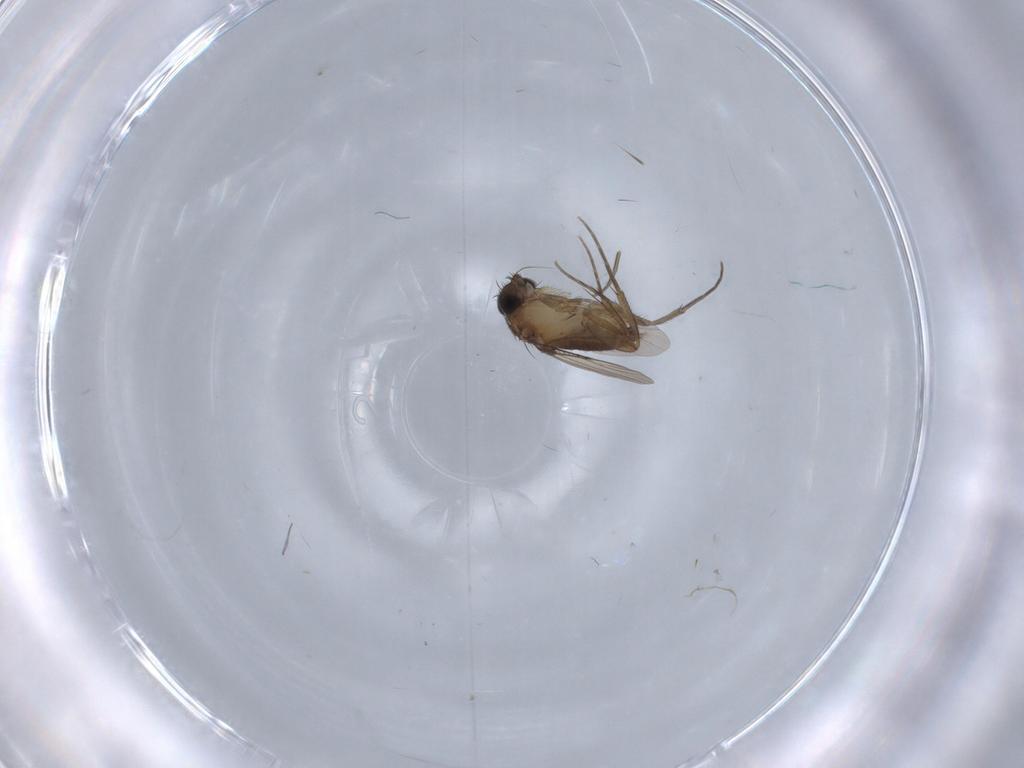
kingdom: Animalia
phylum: Arthropoda
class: Insecta
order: Diptera
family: Phoridae
